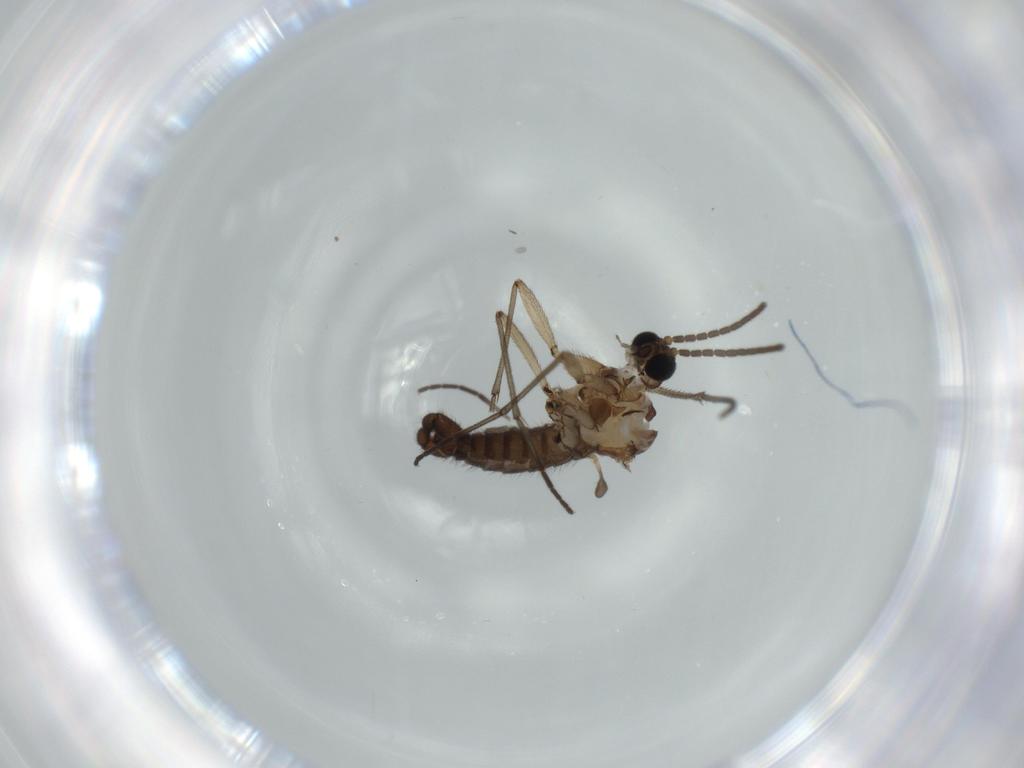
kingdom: Animalia
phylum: Arthropoda
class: Insecta
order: Diptera
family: Sciaridae
